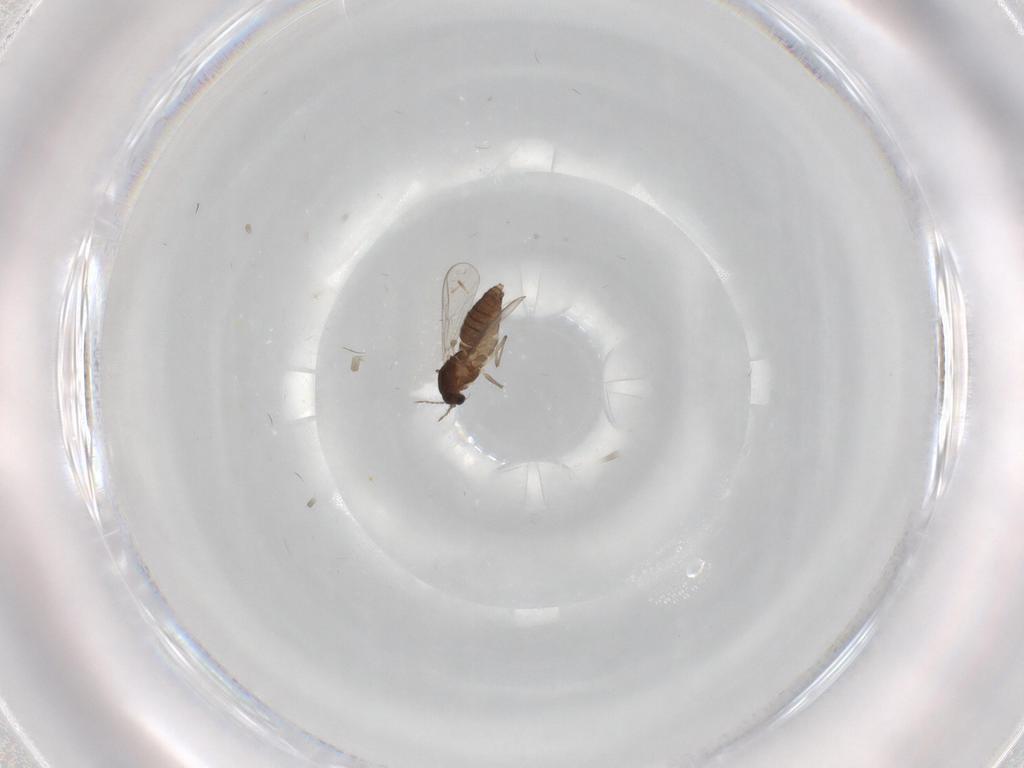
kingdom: Animalia
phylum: Arthropoda
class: Insecta
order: Diptera
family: Chironomidae
